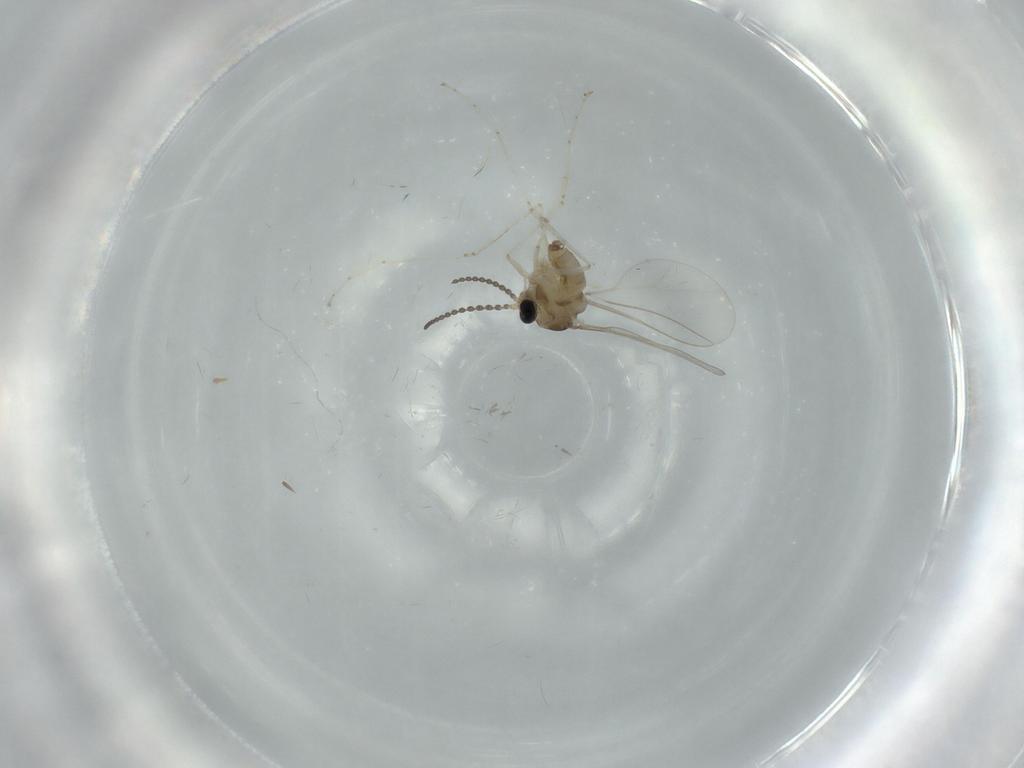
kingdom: Animalia
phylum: Arthropoda
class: Insecta
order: Diptera
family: Cecidomyiidae
